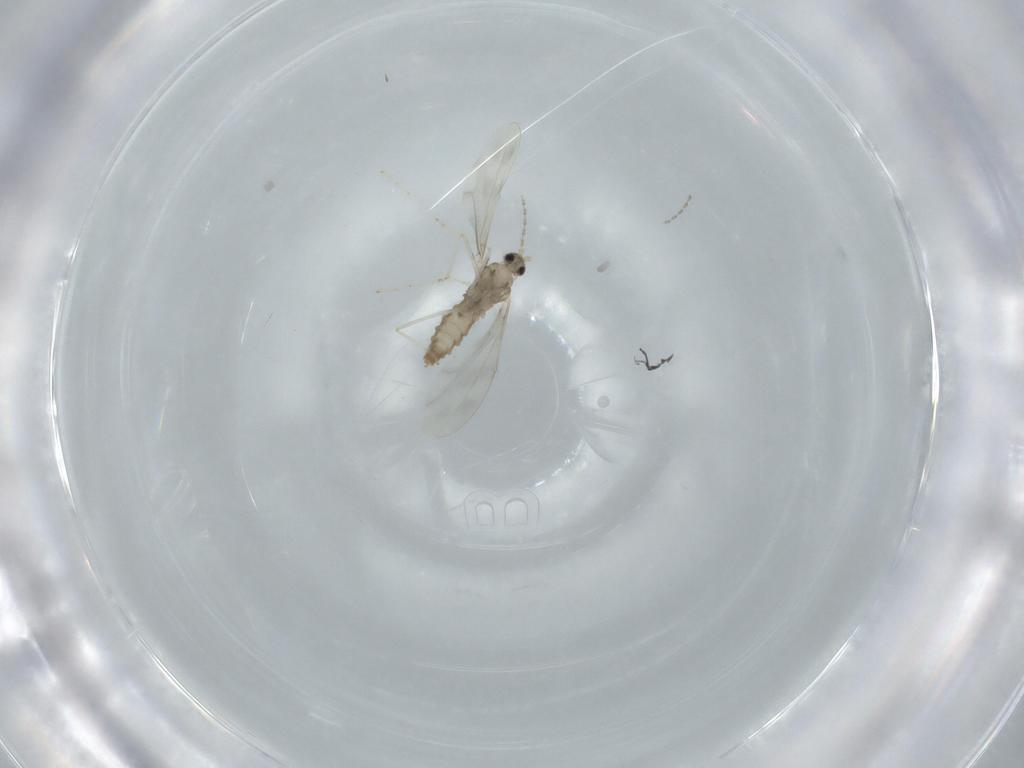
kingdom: Animalia
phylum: Arthropoda
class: Insecta
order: Diptera
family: Cecidomyiidae
